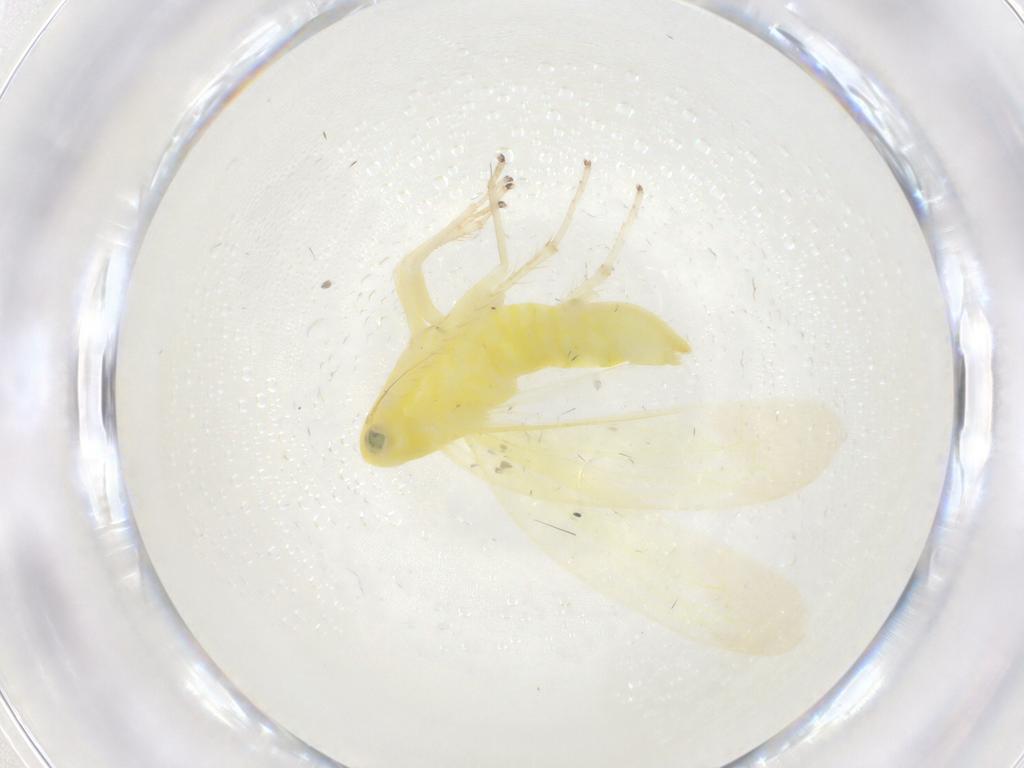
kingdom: Animalia
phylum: Arthropoda
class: Insecta
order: Hemiptera
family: Cicadellidae
